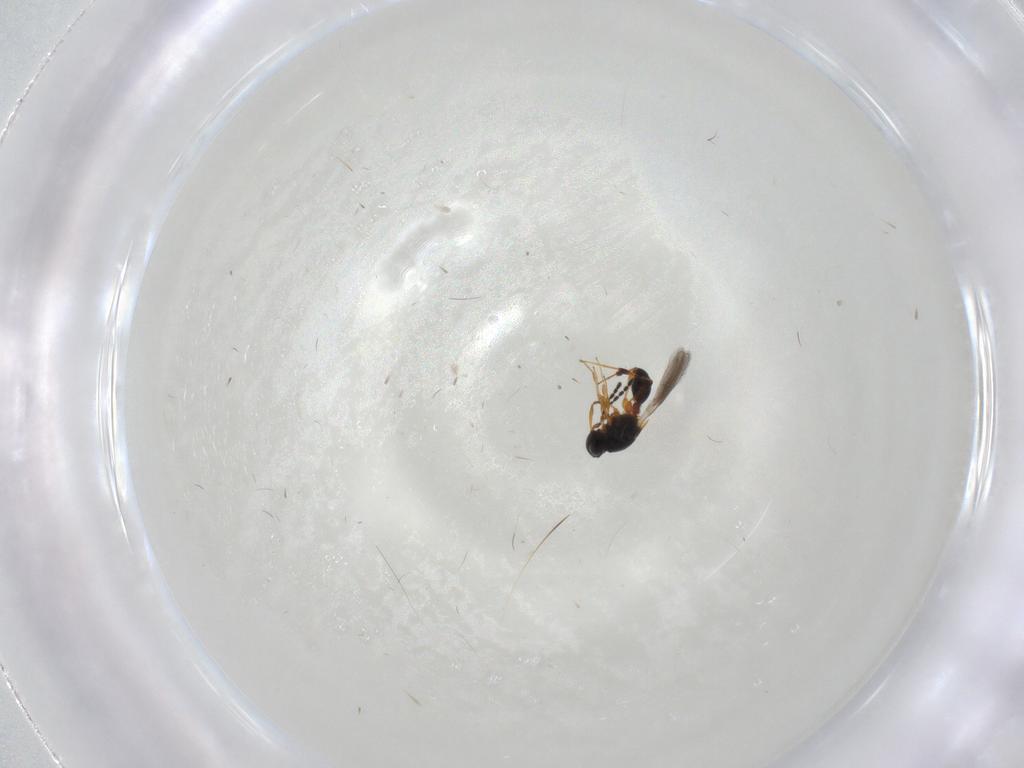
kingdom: Animalia
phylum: Arthropoda
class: Insecta
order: Hymenoptera
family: Platygastridae
